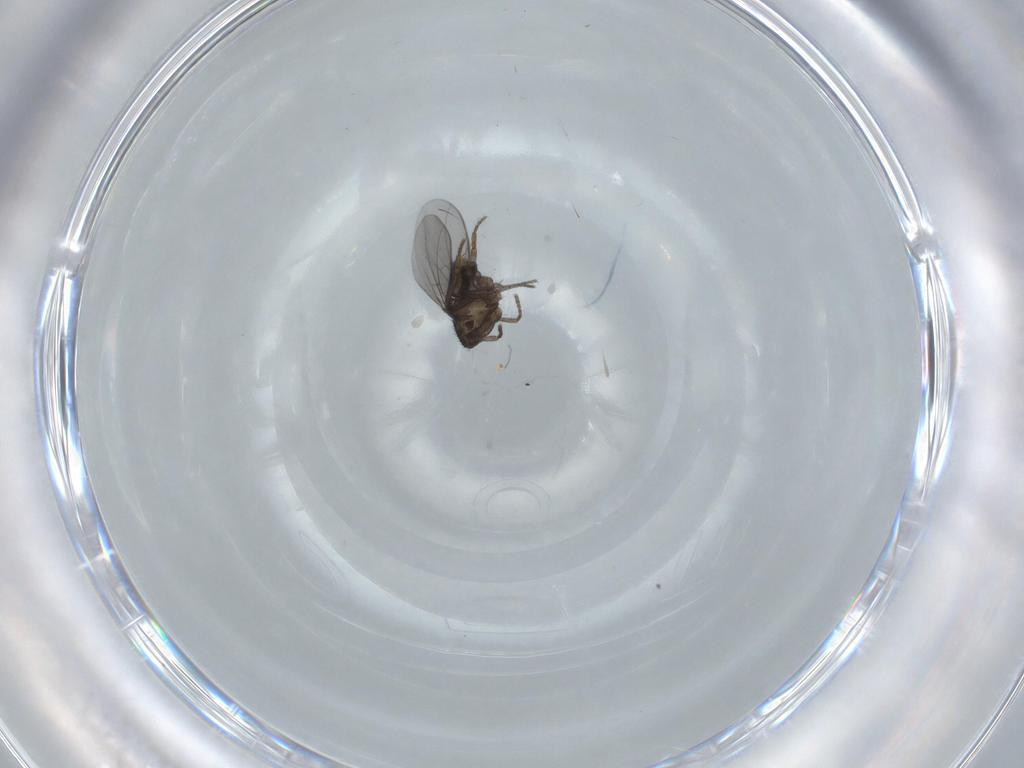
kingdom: Animalia
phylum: Arthropoda
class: Insecta
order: Diptera
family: Sphaeroceridae
